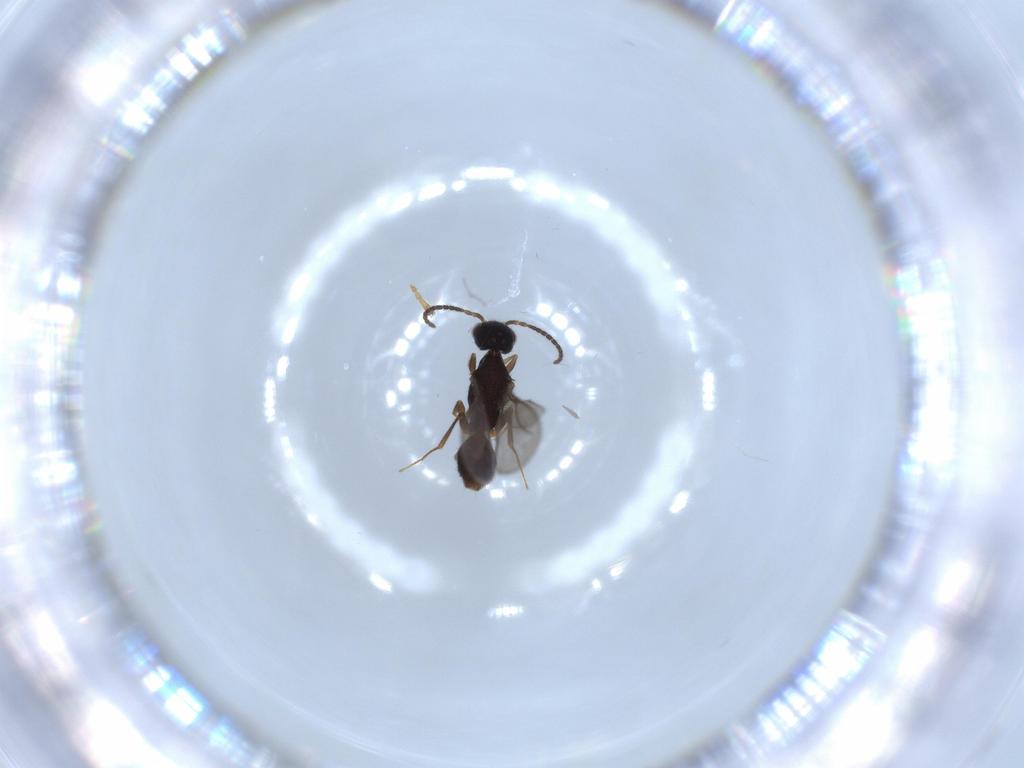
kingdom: Animalia
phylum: Arthropoda
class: Insecta
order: Hymenoptera
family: Bethylidae
